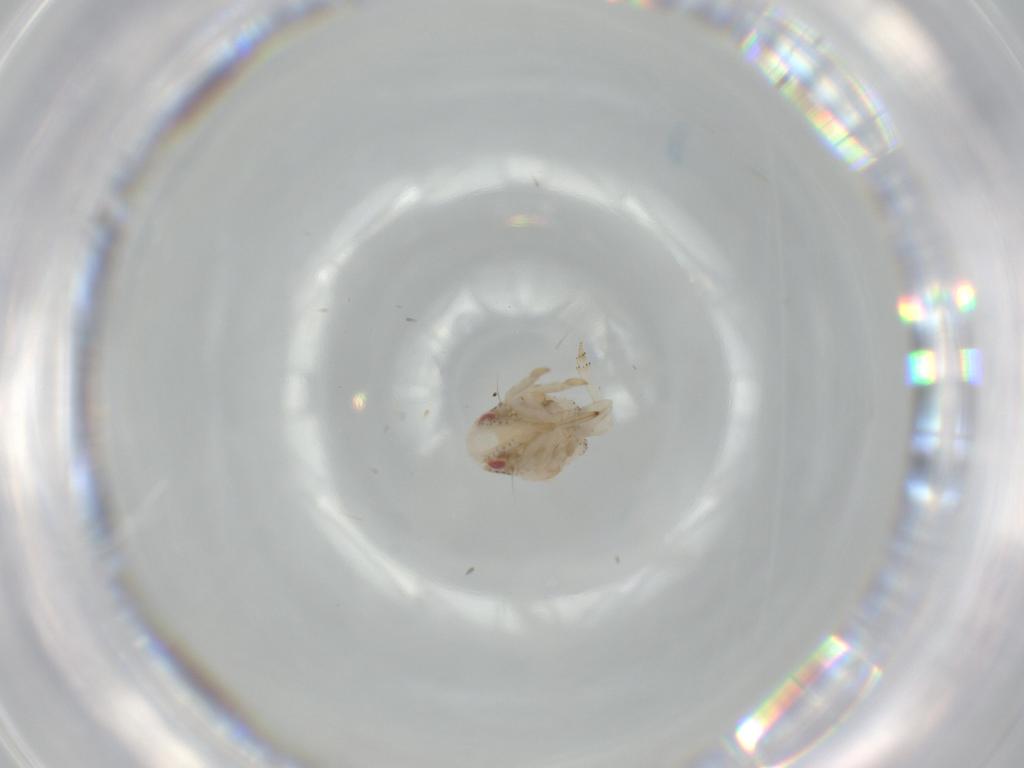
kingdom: Animalia
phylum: Arthropoda
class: Insecta
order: Hemiptera
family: Acanaloniidae
